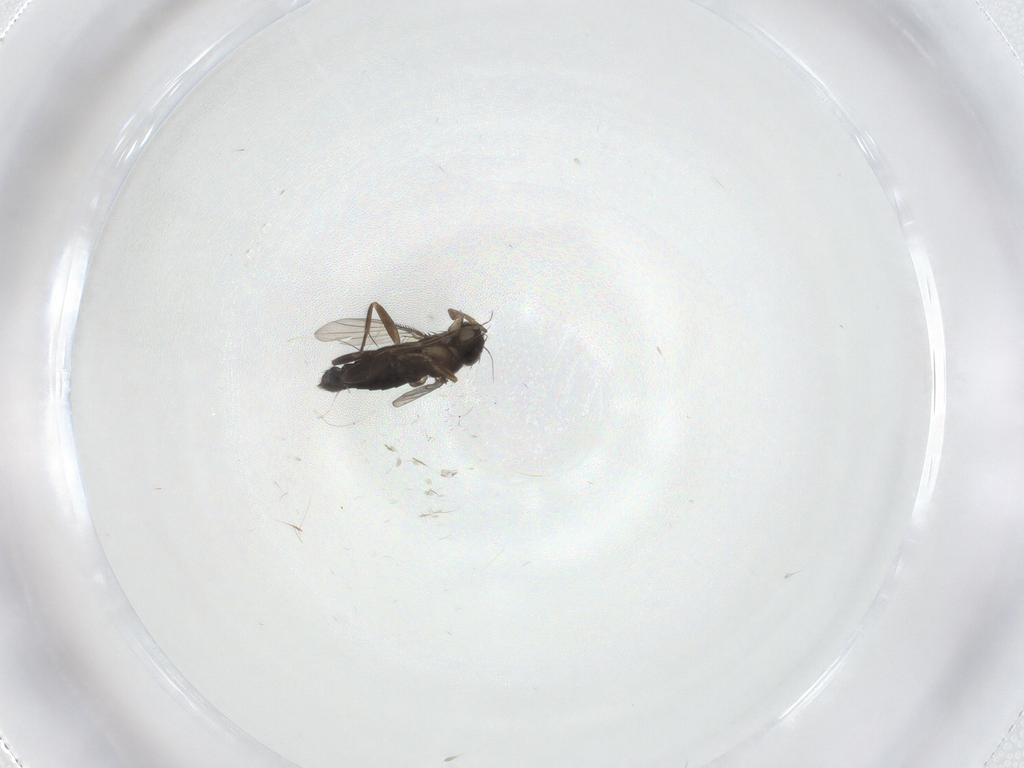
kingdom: Animalia
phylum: Arthropoda
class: Insecta
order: Diptera
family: Phoridae
